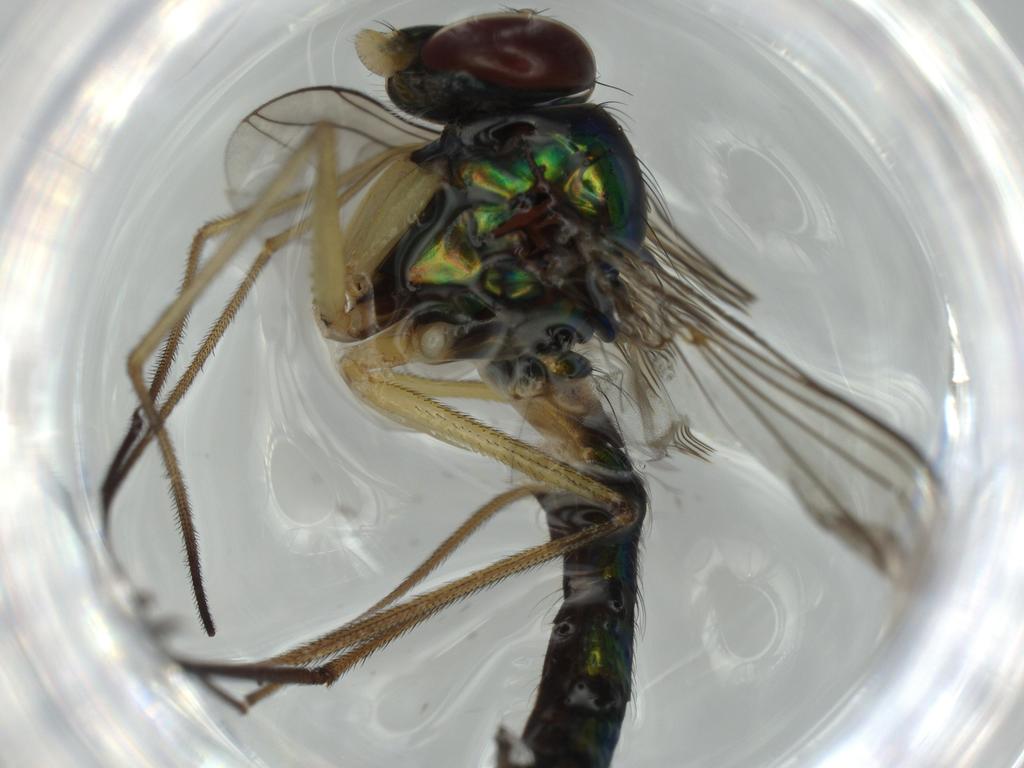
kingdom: Animalia
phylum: Arthropoda
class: Insecta
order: Diptera
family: Dolichopodidae
